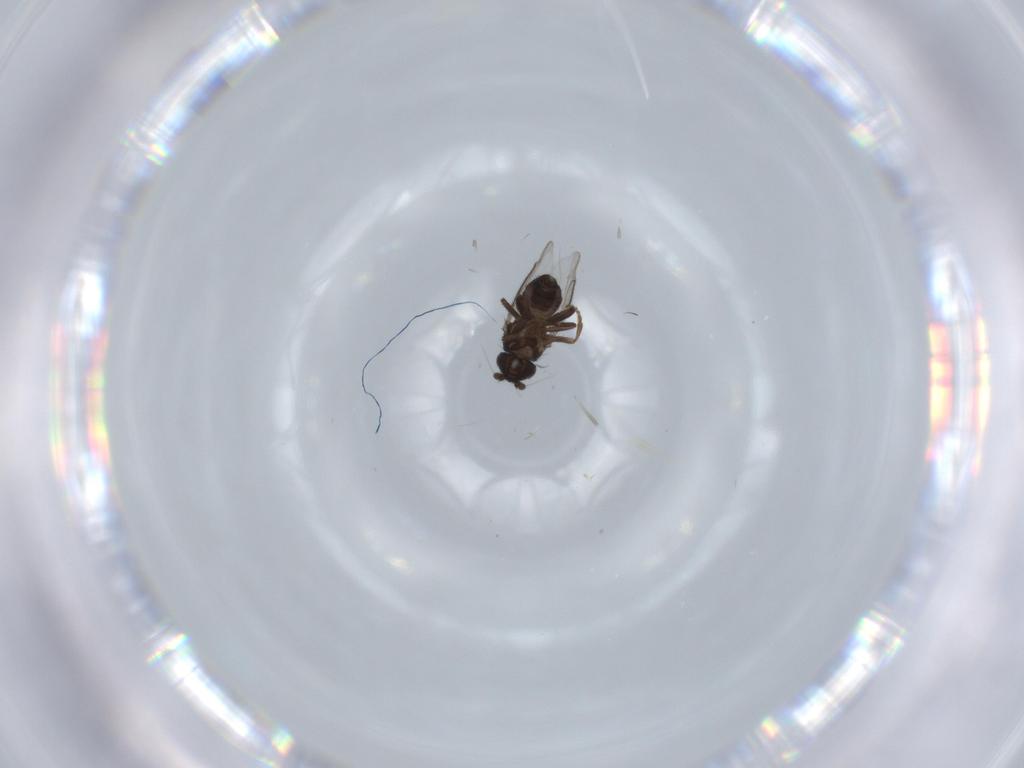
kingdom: Animalia
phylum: Arthropoda
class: Insecta
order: Diptera
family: Sphaeroceridae
